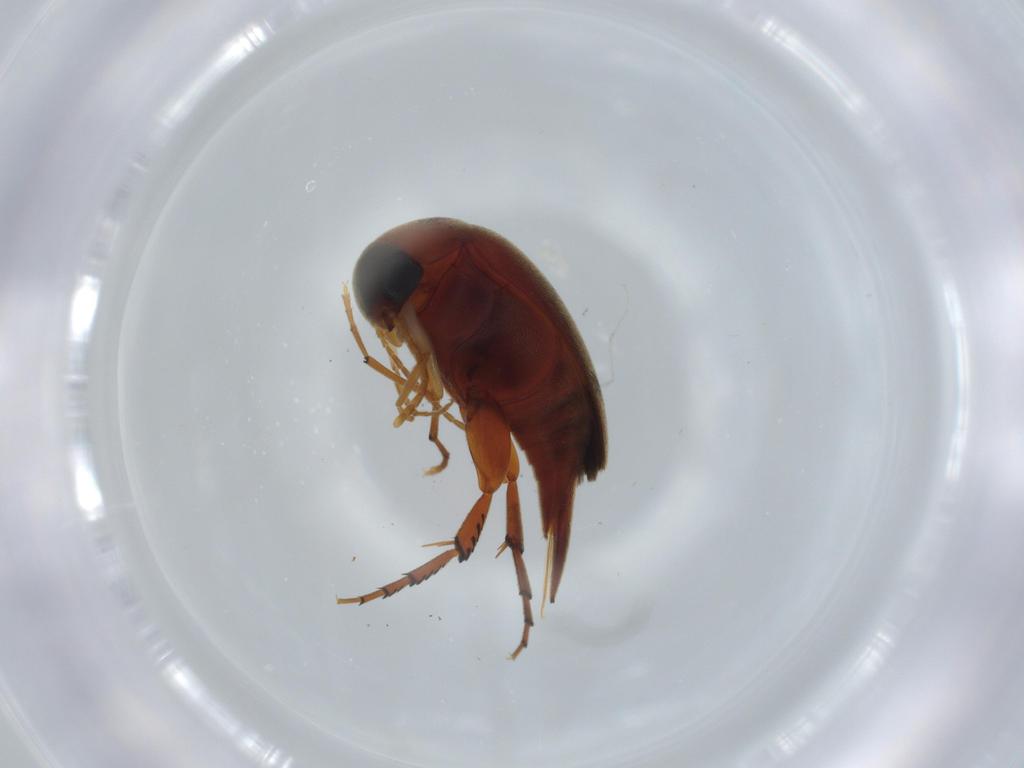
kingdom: Animalia
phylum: Arthropoda
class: Insecta
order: Coleoptera
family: Mordellidae
